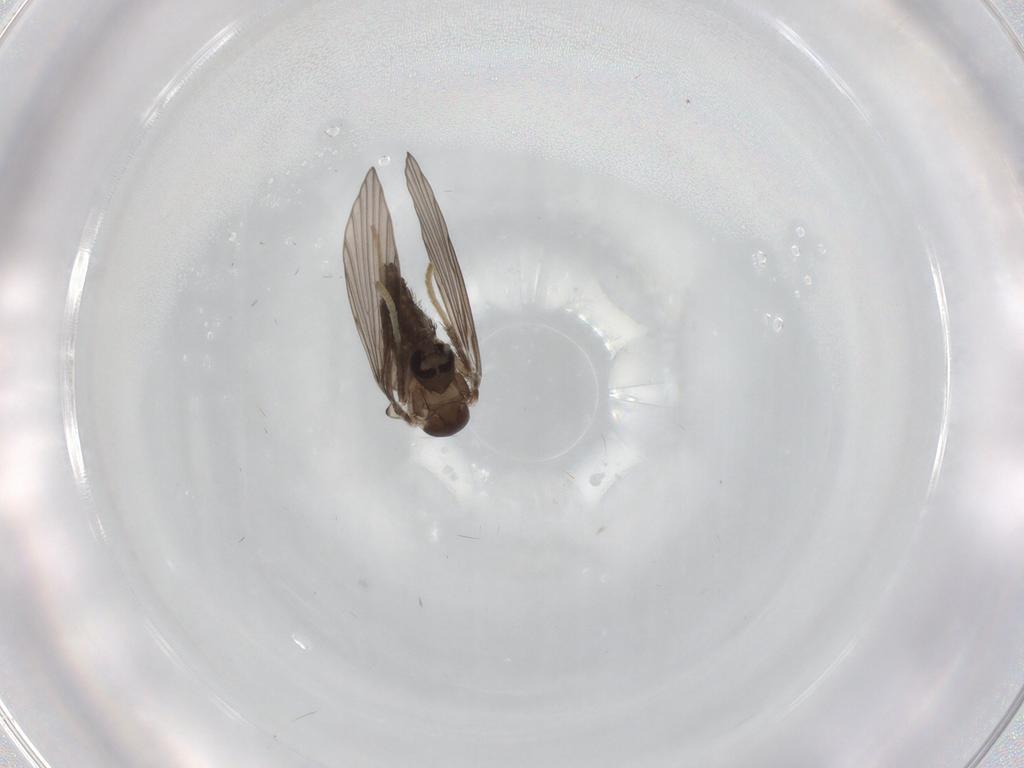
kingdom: Animalia
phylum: Arthropoda
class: Insecta
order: Diptera
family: Psychodidae
